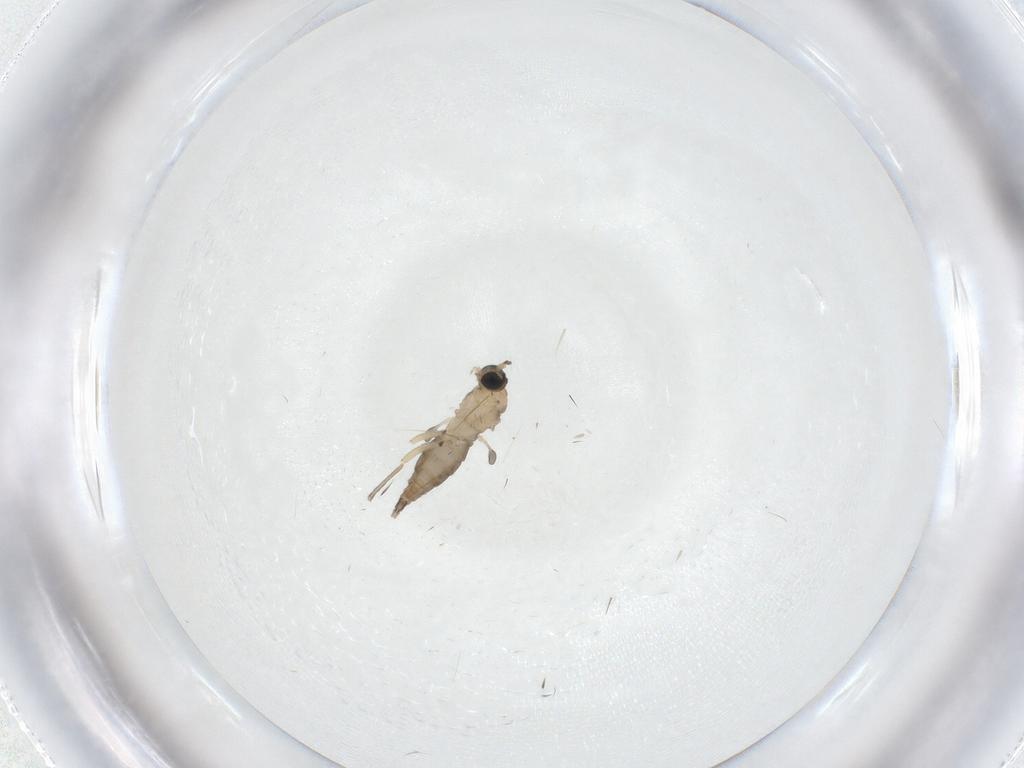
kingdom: Animalia
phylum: Arthropoda
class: Insecta
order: Diptera
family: Sciaridae
